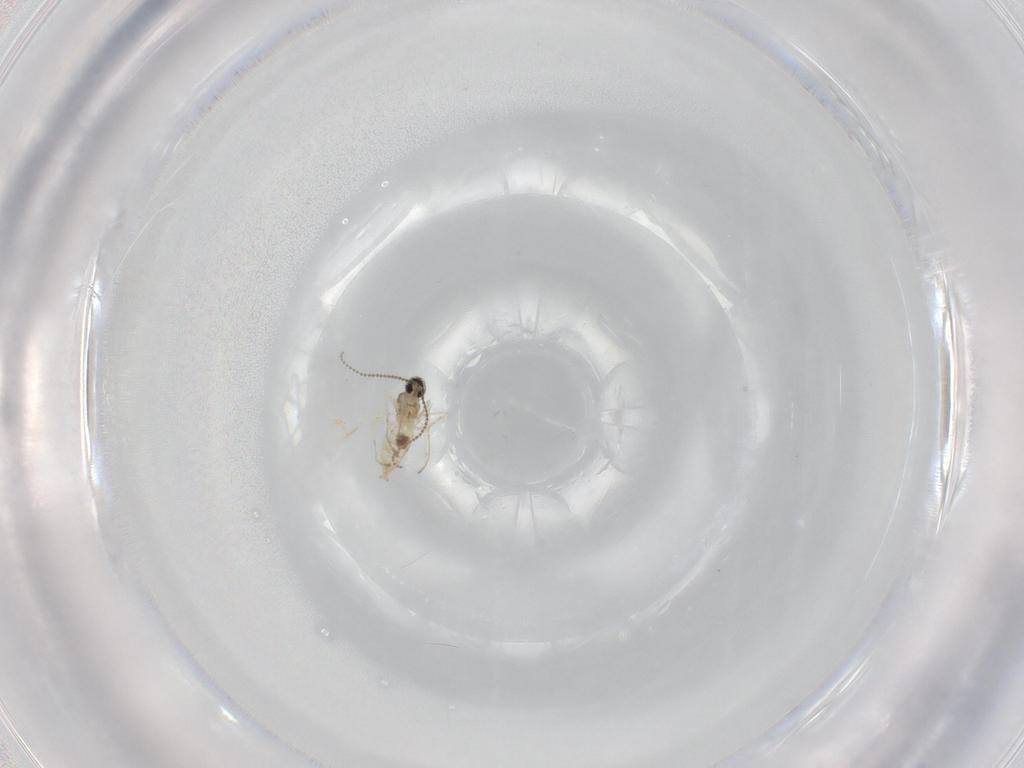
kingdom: Animalia
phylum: Arthropoda
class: Insecta
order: Diptera
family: Cecidomyiidae
